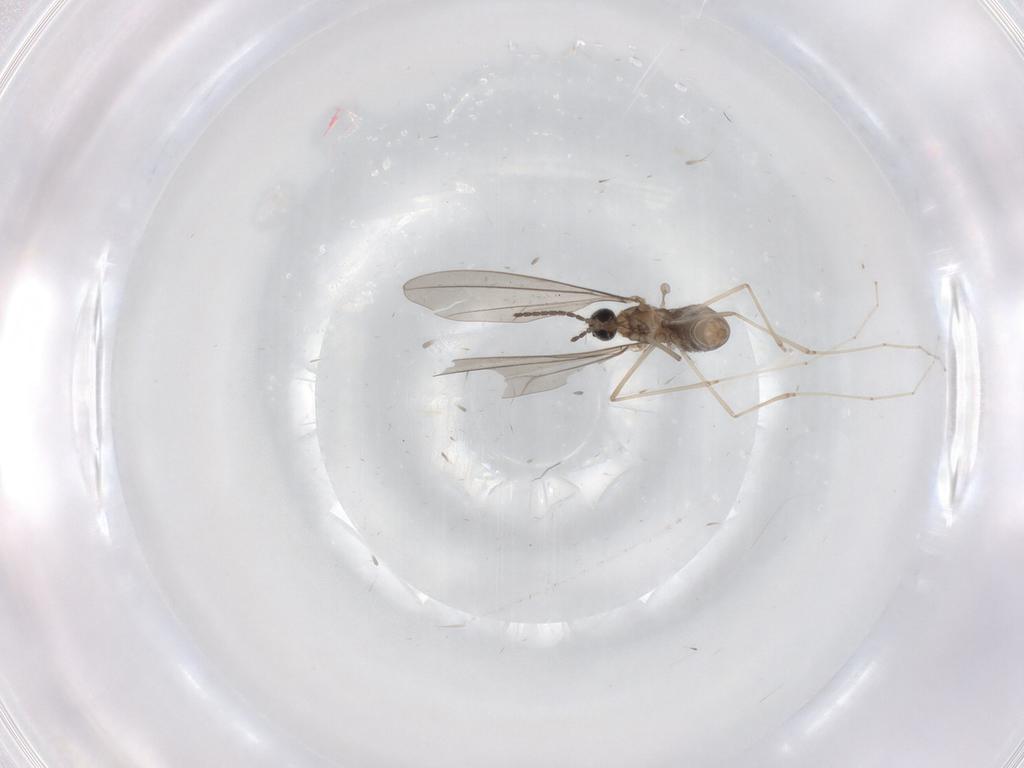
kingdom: Animalia
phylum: Arthropoda
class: Insecta
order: Diptera
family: Cecidomyiidae
